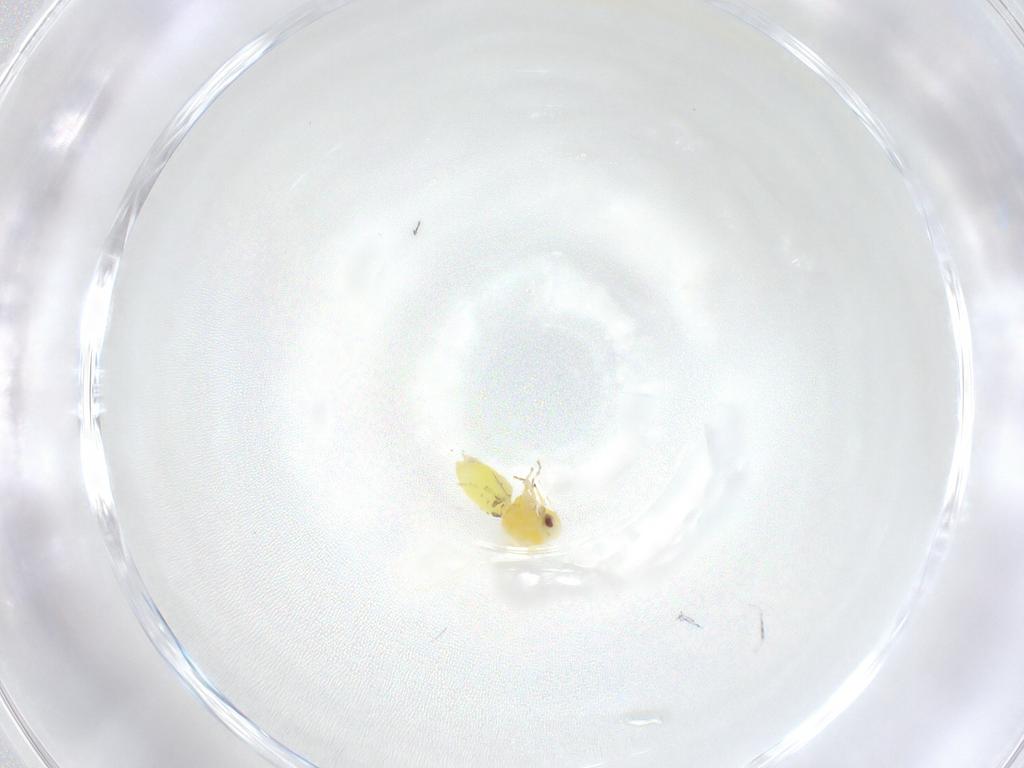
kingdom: Animalia
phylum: Arthropoda
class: Insecta
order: Hemiptera
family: Aleyrodidae
